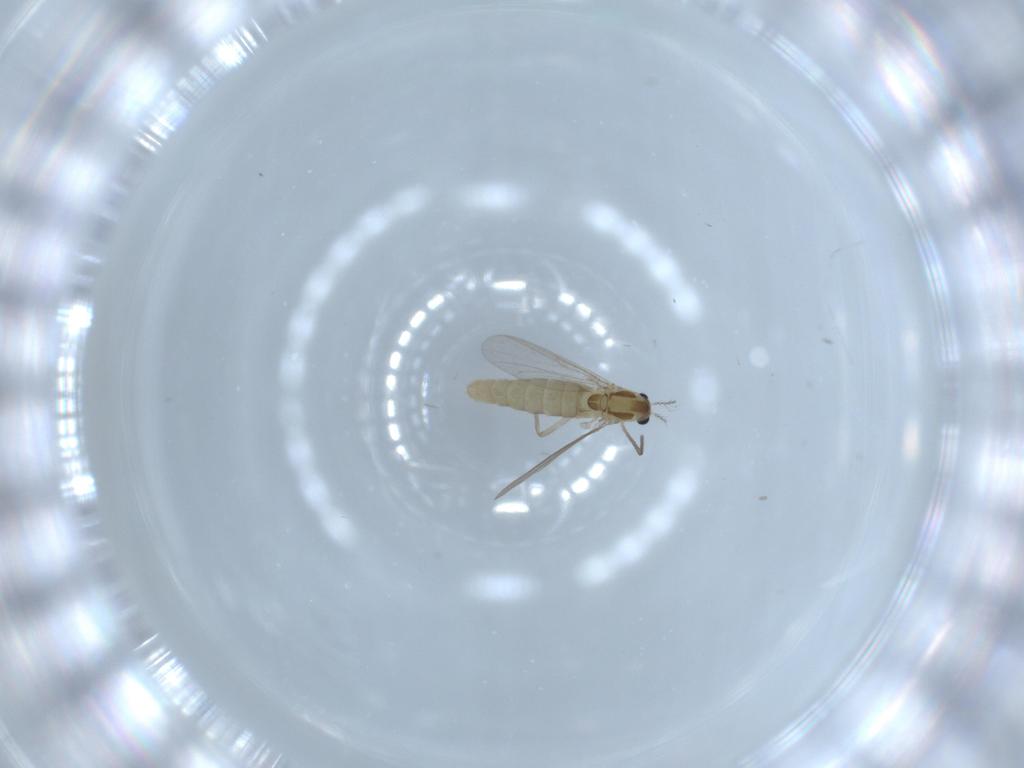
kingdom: Animalia
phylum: Arthropoda
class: Insecta
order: Diptera
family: Chironomidae
